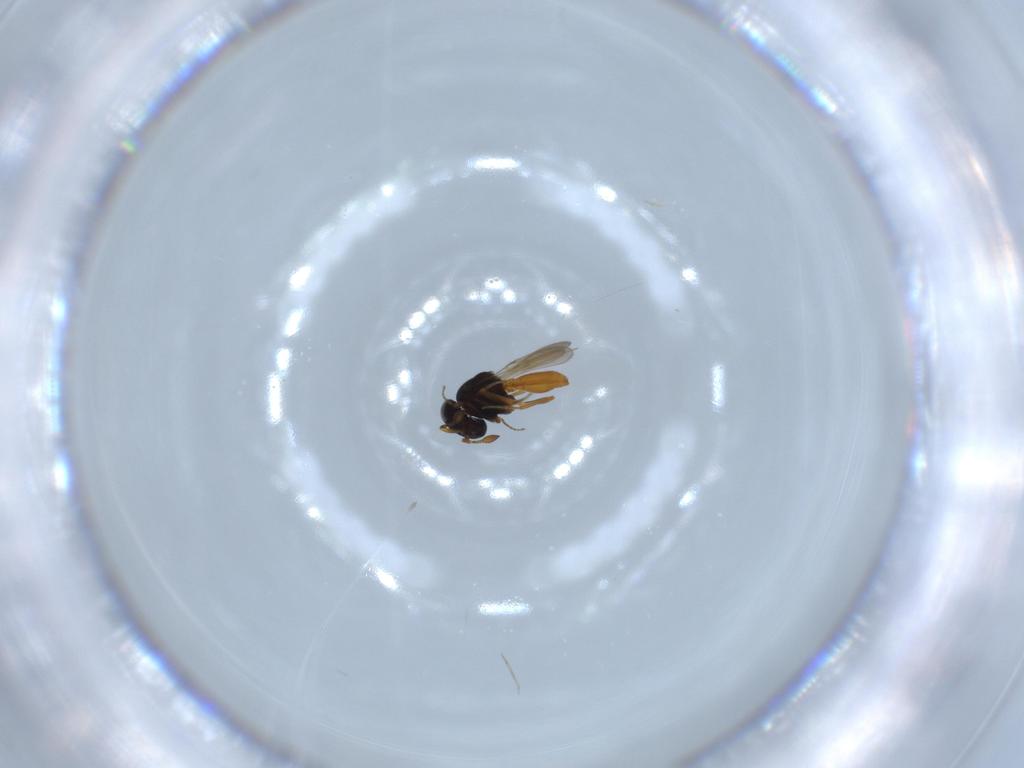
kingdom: Animalia
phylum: Arthropoda
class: Insecta
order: Hymenoptera
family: Scelionidae
